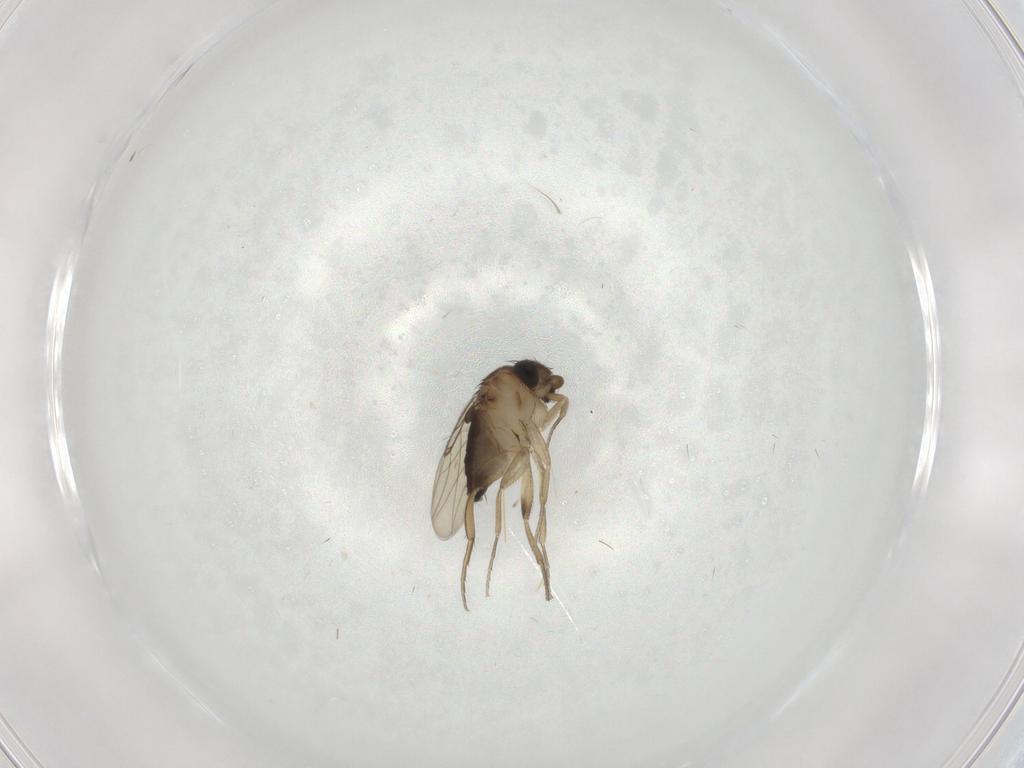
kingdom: Animalia
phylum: Arthropoda
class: Insecta
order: Diptera
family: Phoridae
